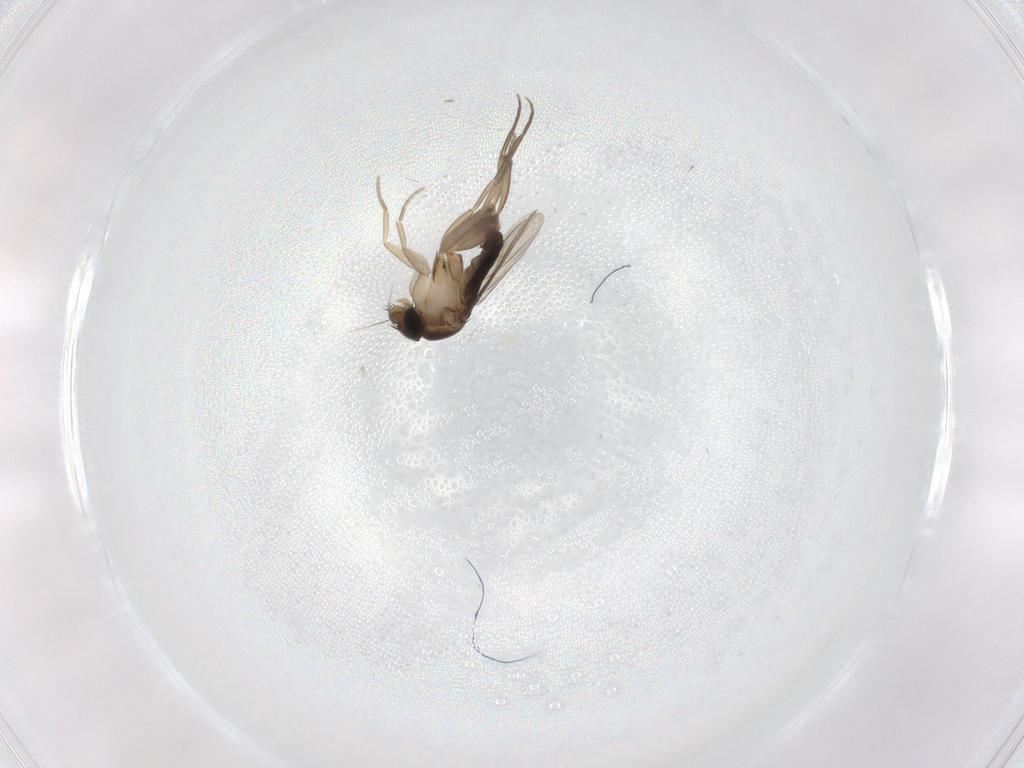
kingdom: Animalia
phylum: Arthropoda
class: Insecta
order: Diptera
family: Phoridae
